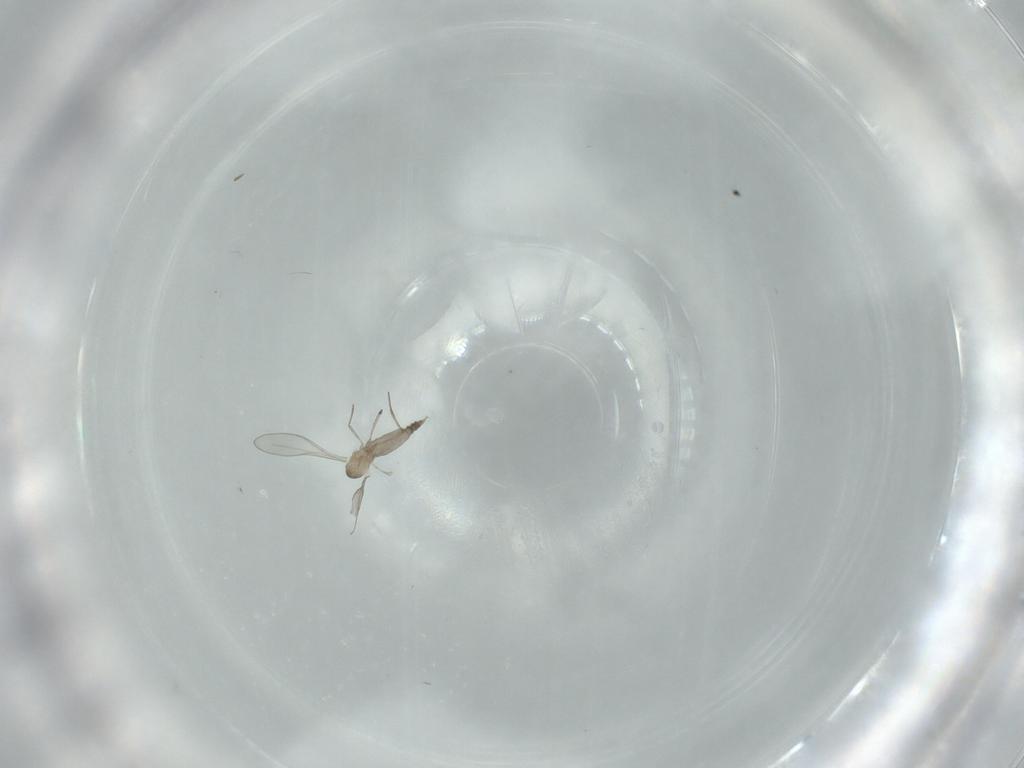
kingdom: Animalia
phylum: Arthropoda
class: Insecta
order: Diptera
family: Cecidomyiidae
